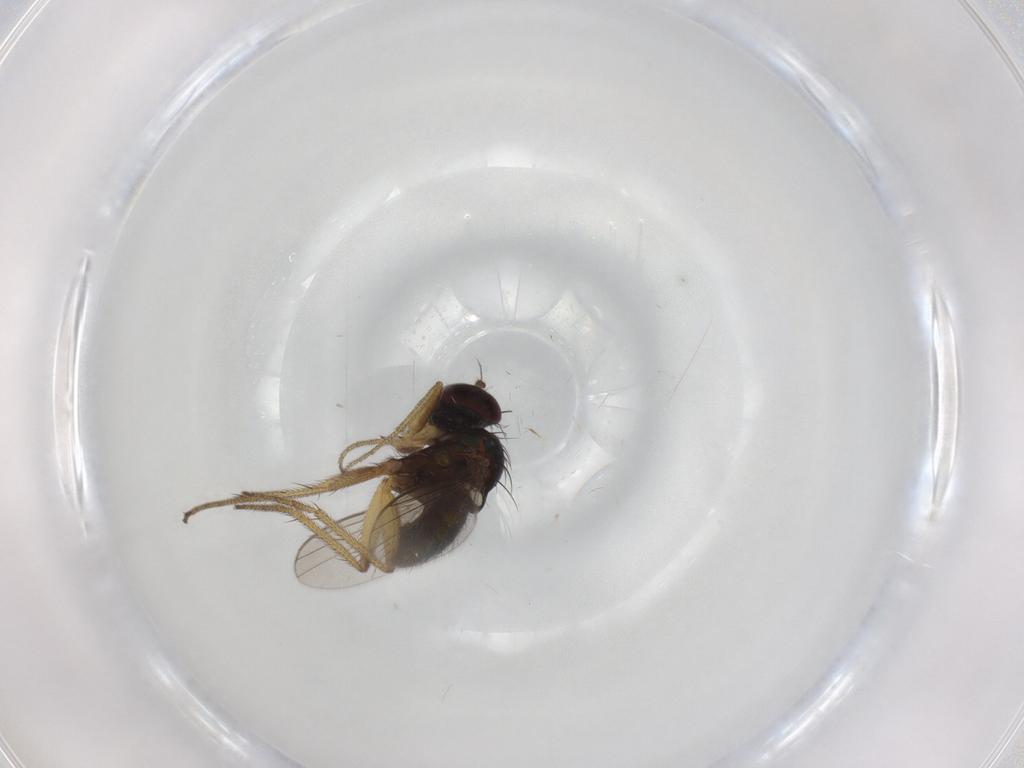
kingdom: Animalia
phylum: Arthropoda
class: Insecta
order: Diptera
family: Dolichopodidae
